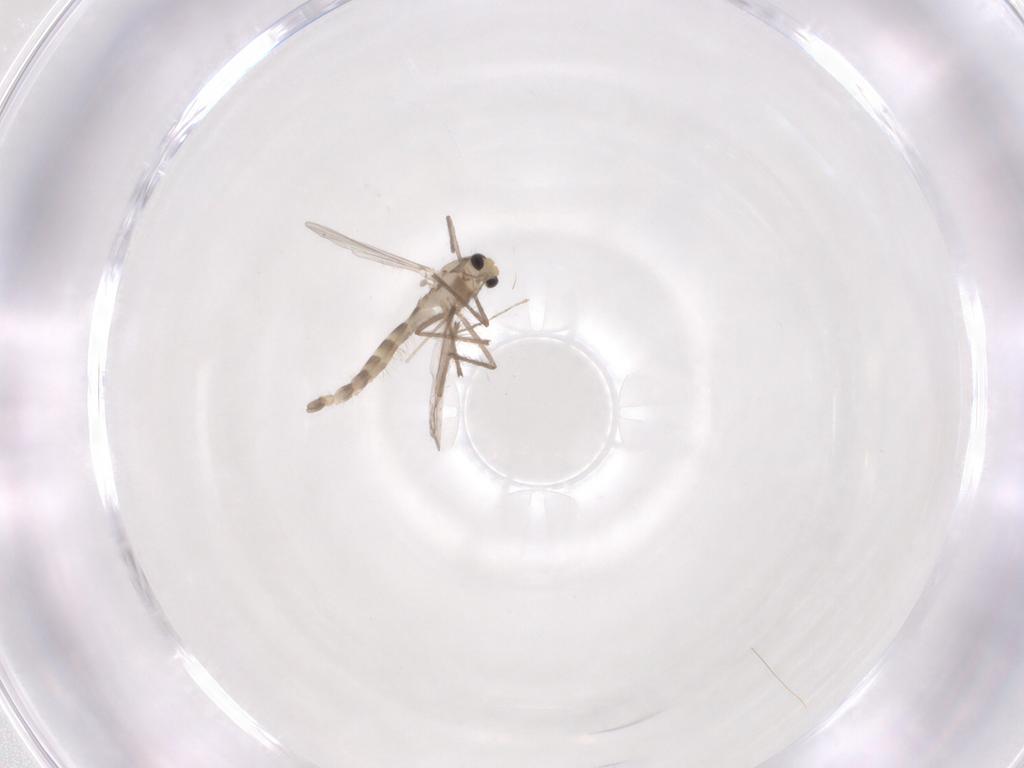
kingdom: Animalia
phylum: Arthropoda
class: Insecta
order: Diptera
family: Chironomidae
